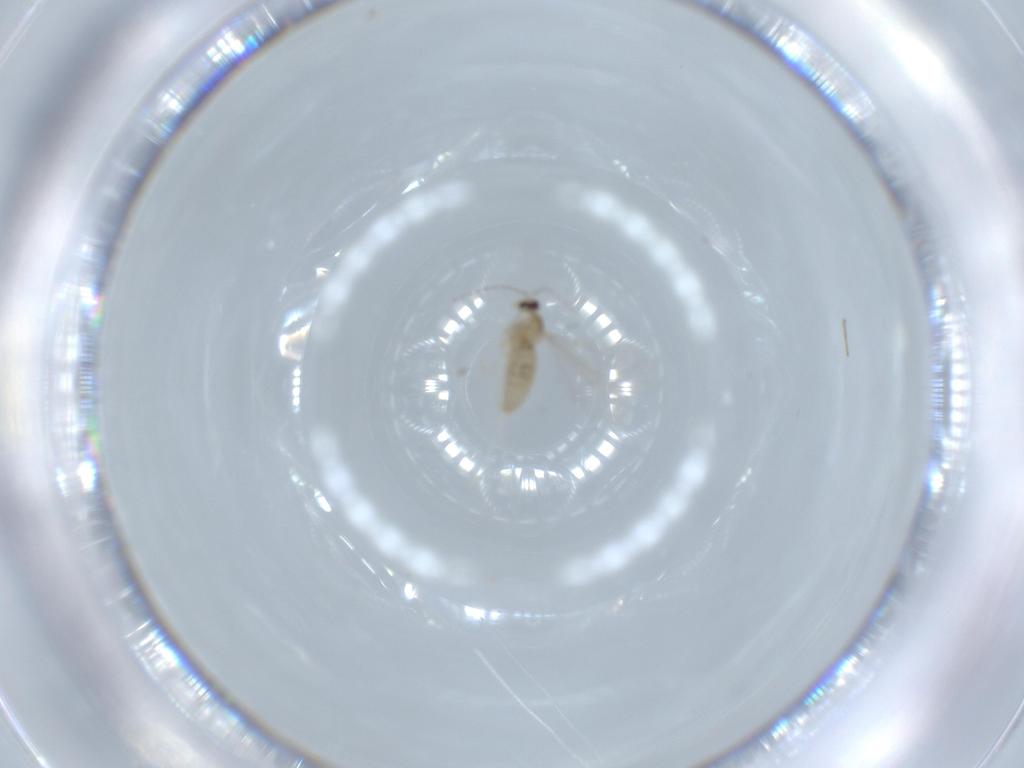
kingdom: Animalia
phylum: Arthropoda
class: Insecta
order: Diptera
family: Cecidomyiidae
